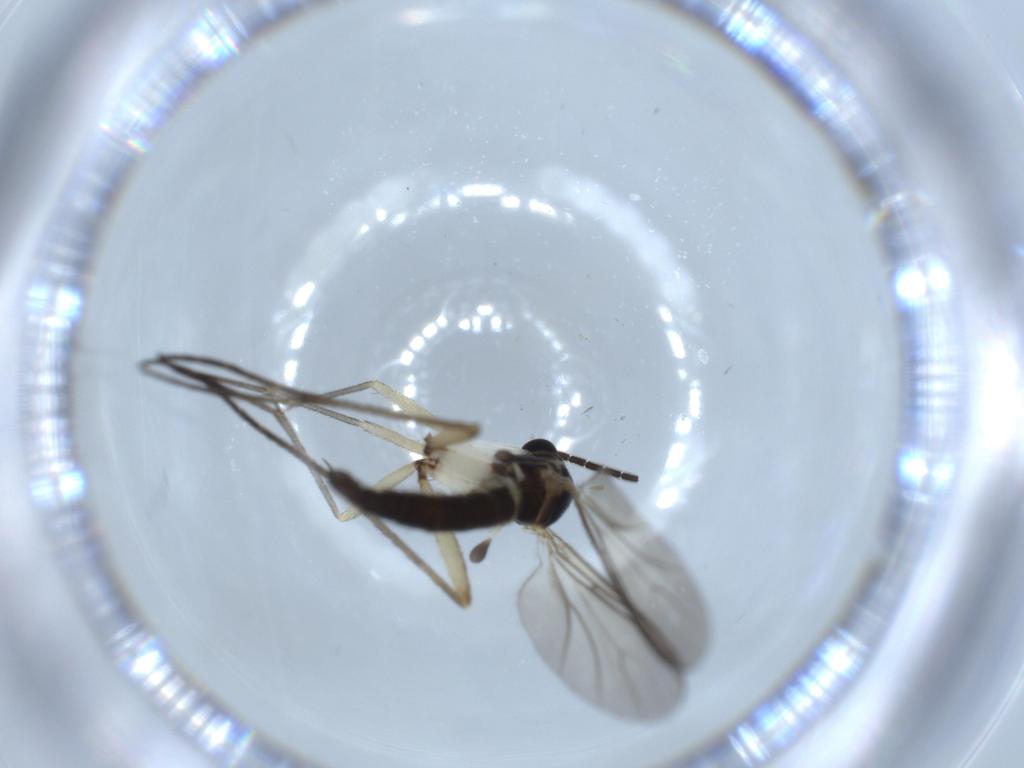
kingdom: Animalia
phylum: Arthropoda
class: Insecta
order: Diptera
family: Sciaridae
